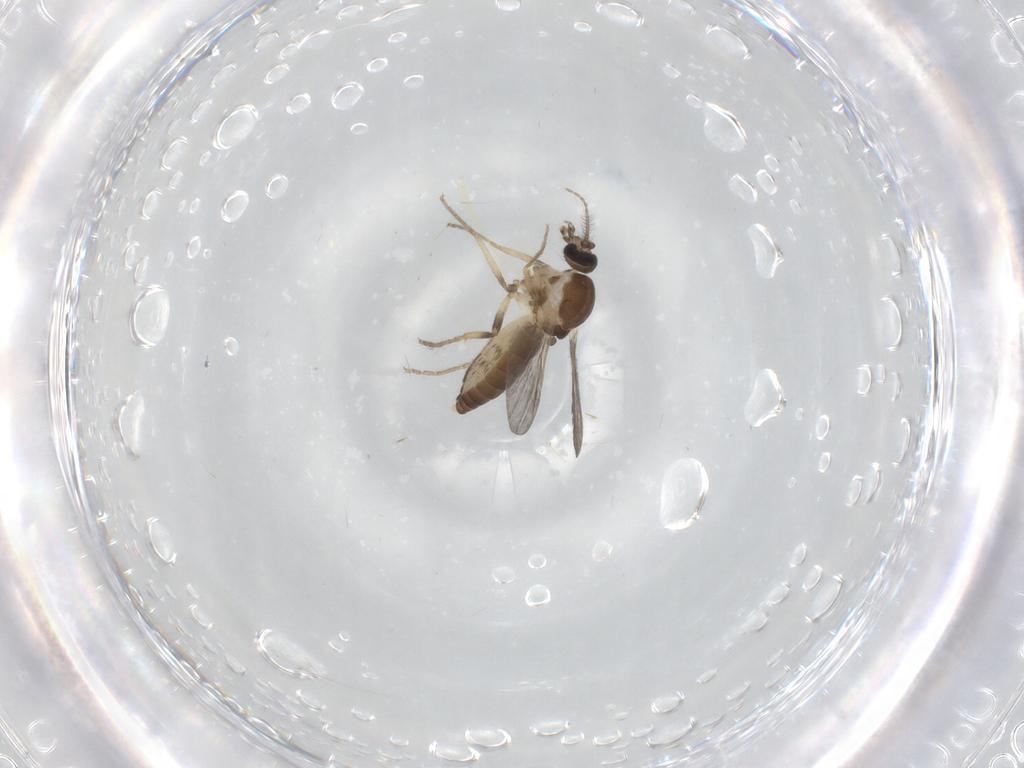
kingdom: Animalia
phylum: Arthropoda
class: Insecta
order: Diptera
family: Ceratopogonidae
